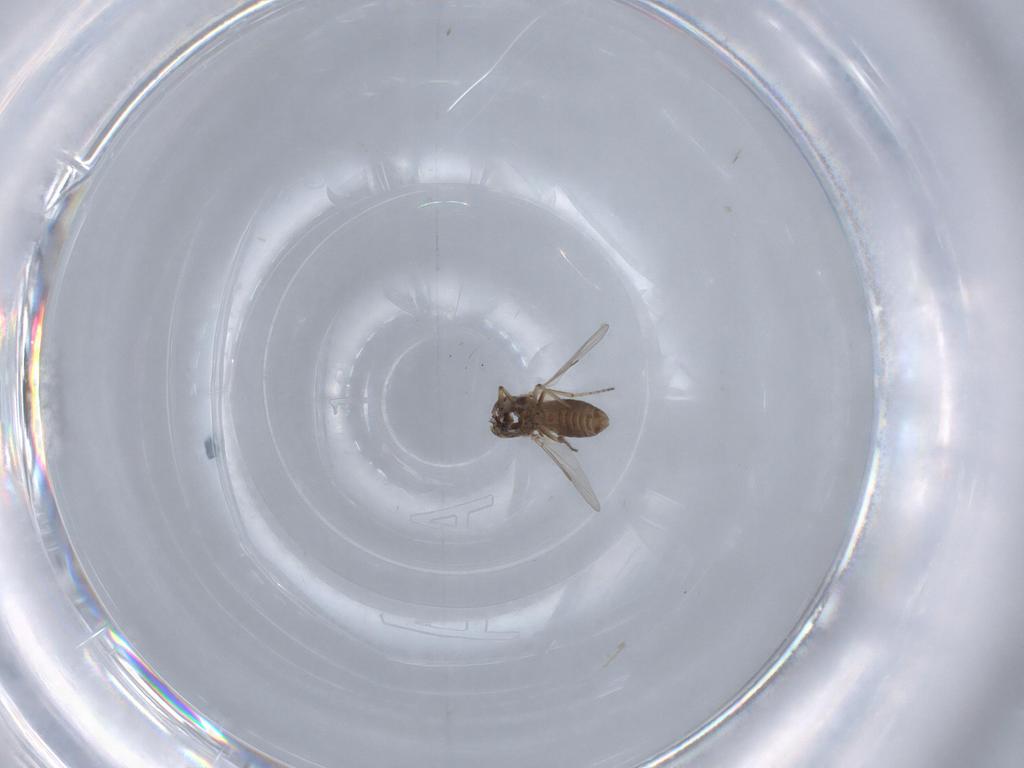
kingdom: Animalia
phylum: Arthropoda
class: Insecta
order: Diptera
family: Ceratopogonidae
